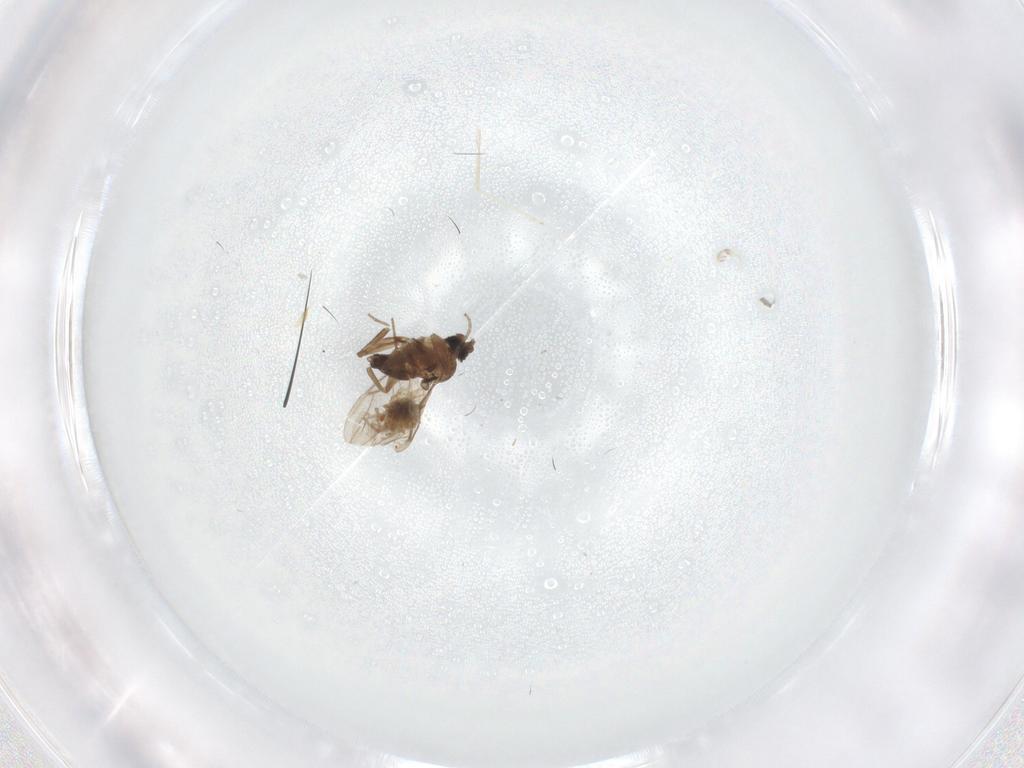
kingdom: Animalia
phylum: Arthropoda
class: Insecta
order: Diptera
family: Cecidomyiidae
